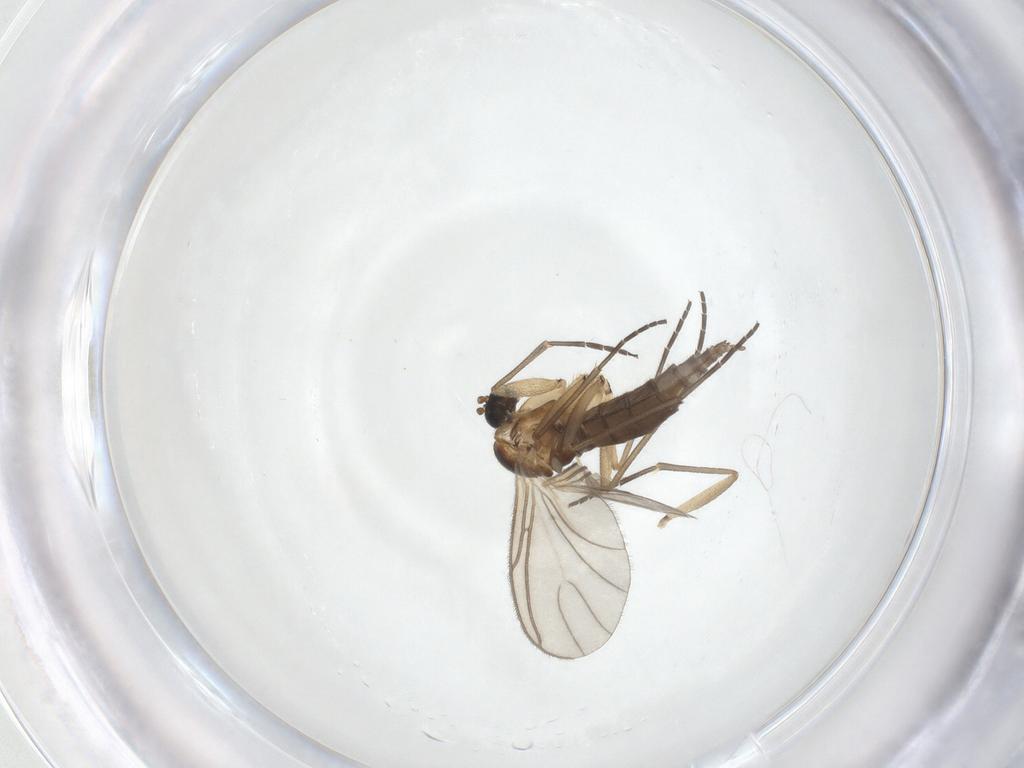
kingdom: Animalia
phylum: Arthropoda
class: Insecta
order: Diptera
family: Sciaridae
